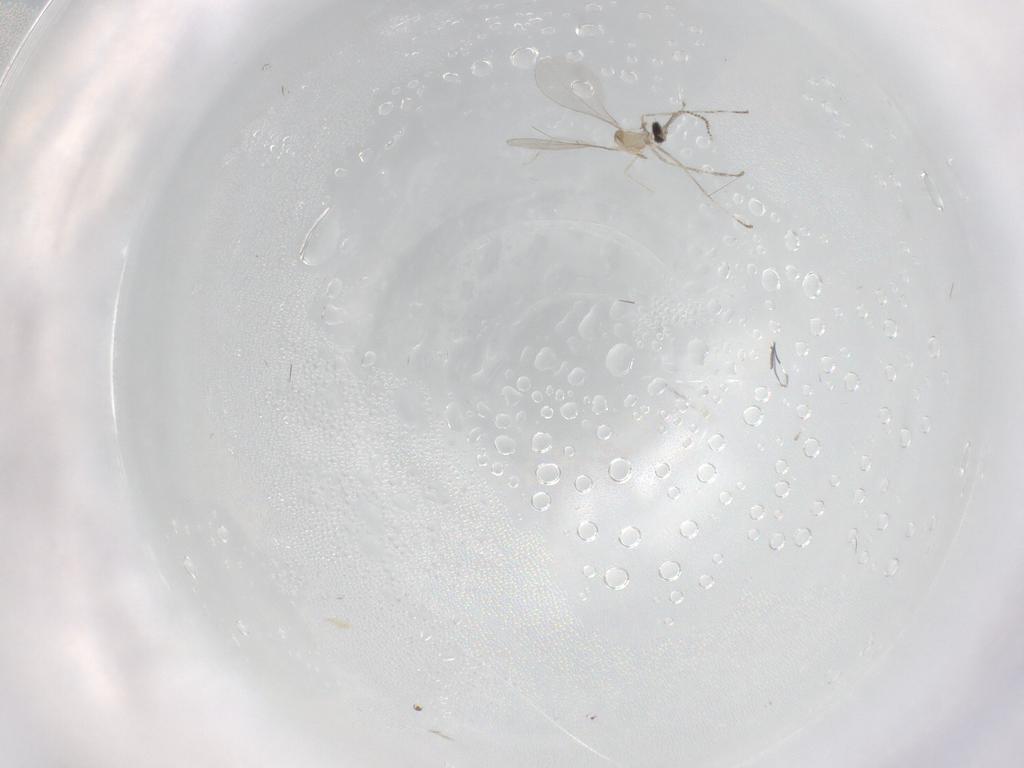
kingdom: Animalia
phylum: Arthropoda
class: Insecta
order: Diptera
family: Cecidomyiidae
